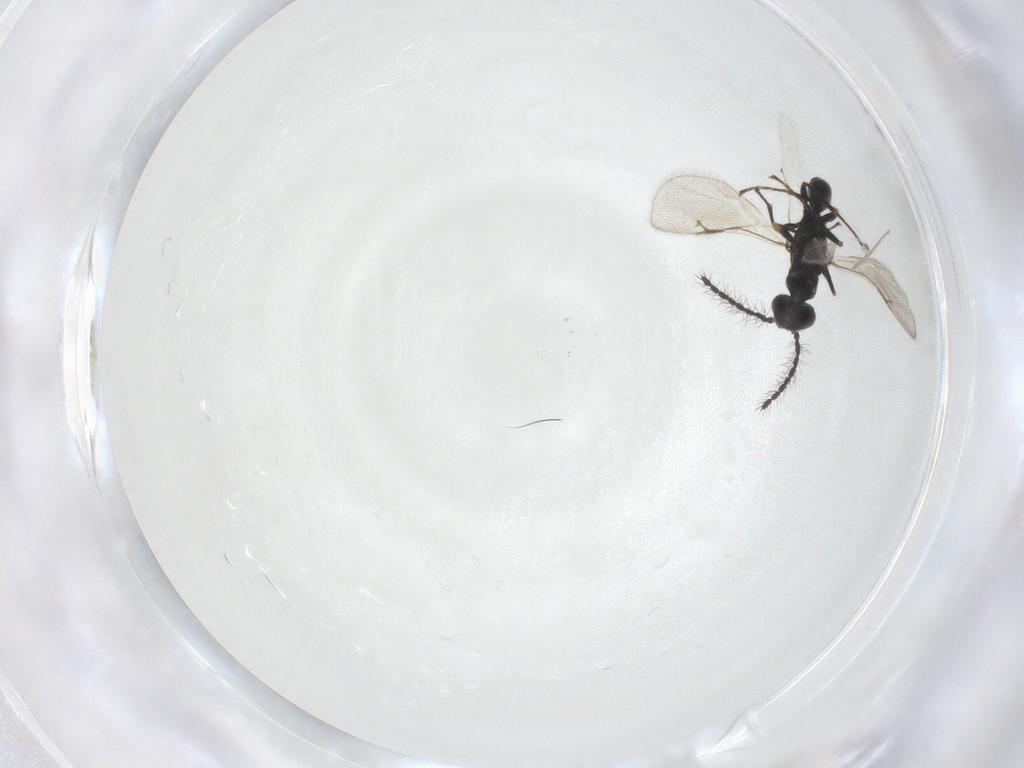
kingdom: Animalia
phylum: Arthropoda
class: Insecta
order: Hymenoptera
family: Eurytomidae
